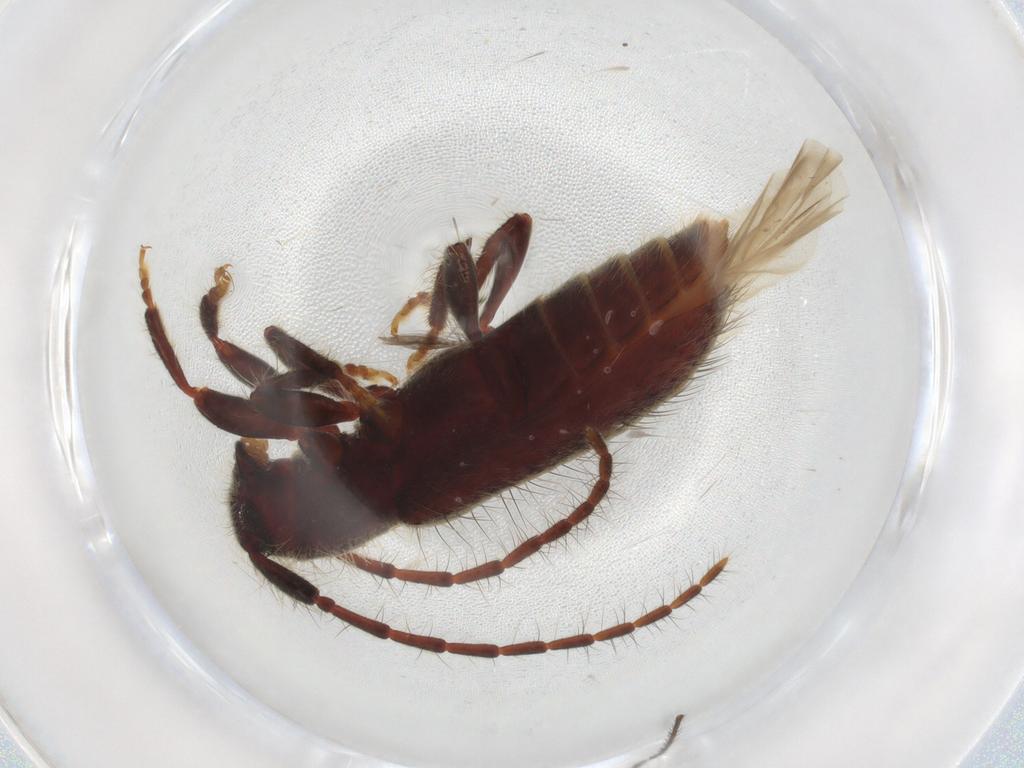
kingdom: Animalia
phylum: Arthropoda
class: Insecta
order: Coleoptera
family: Cerambycidae
